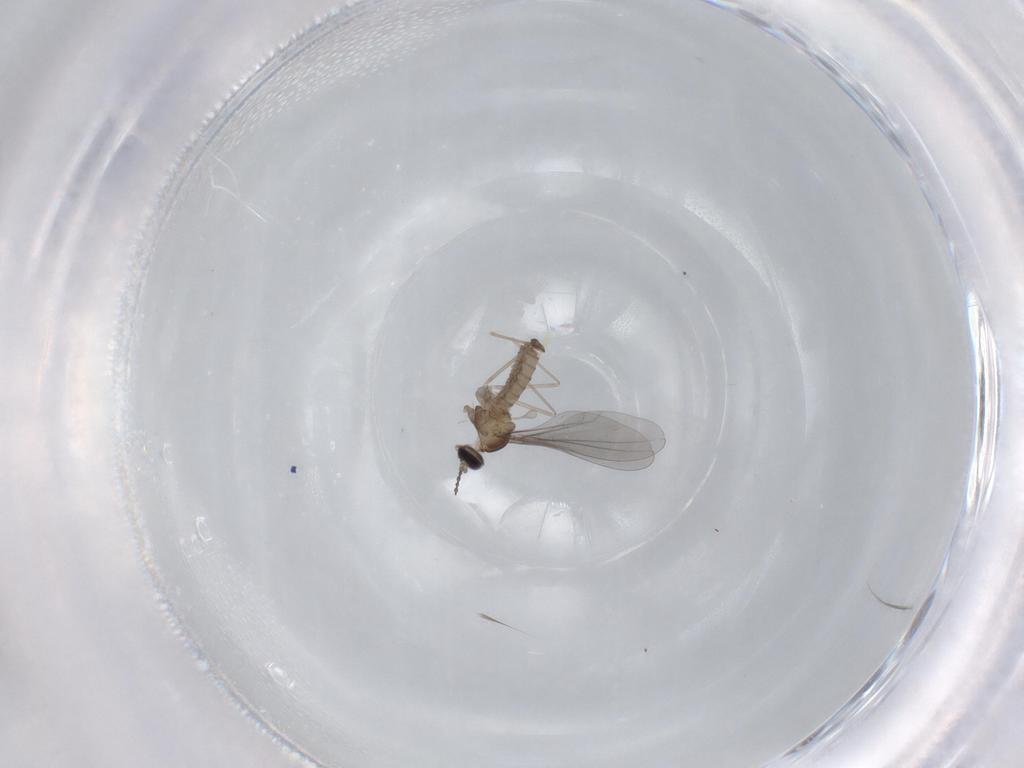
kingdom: Animalia
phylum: Arthropoda
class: Insecta
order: Diptera
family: Cecidomyiidae
